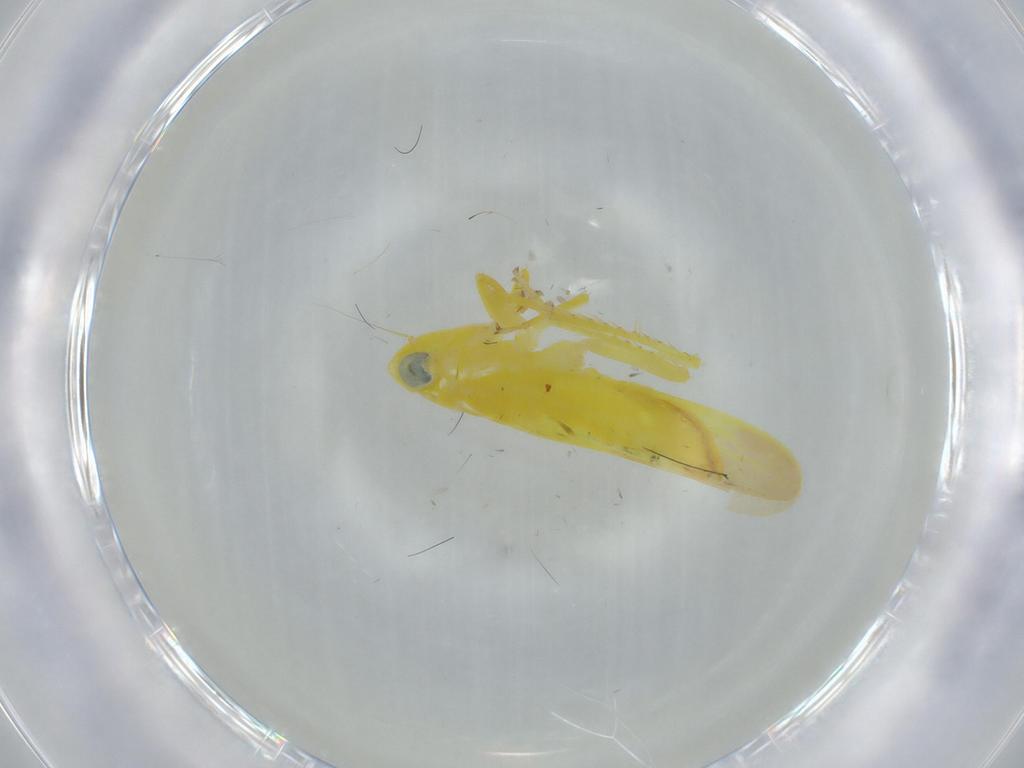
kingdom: Animalia
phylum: Arthropoda
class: Insecta
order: Hemiptera
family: Cicadellidae
